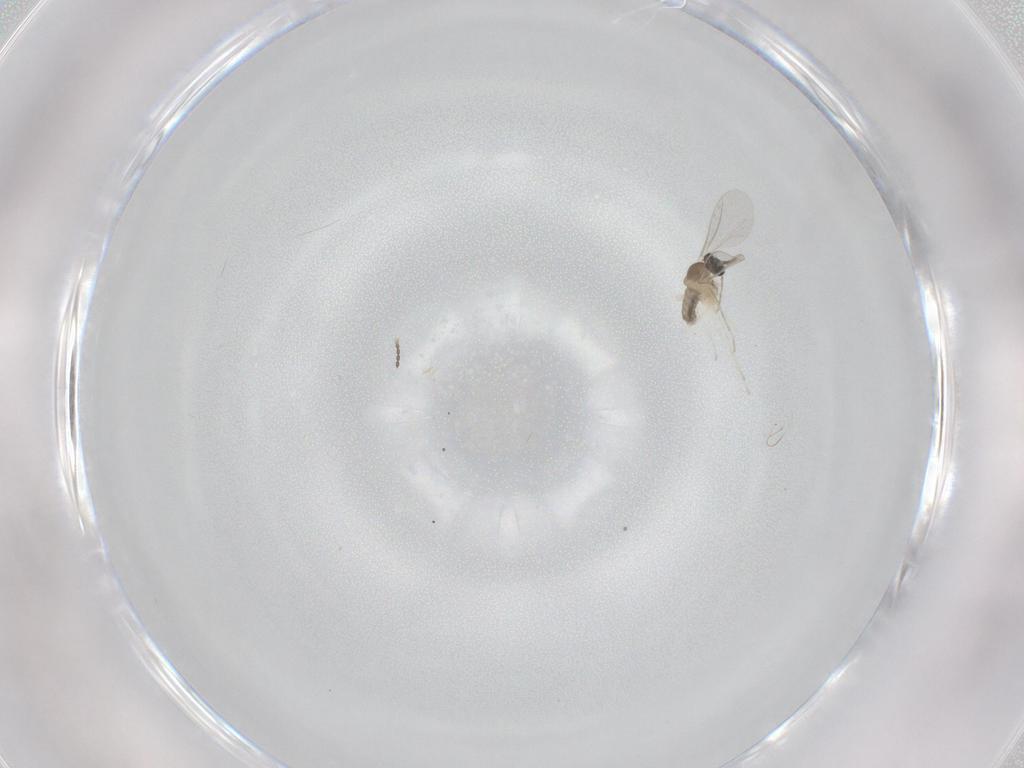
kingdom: Animalia
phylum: Arthropoda
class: Insecta
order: Diptera
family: Cecidomyiidae
